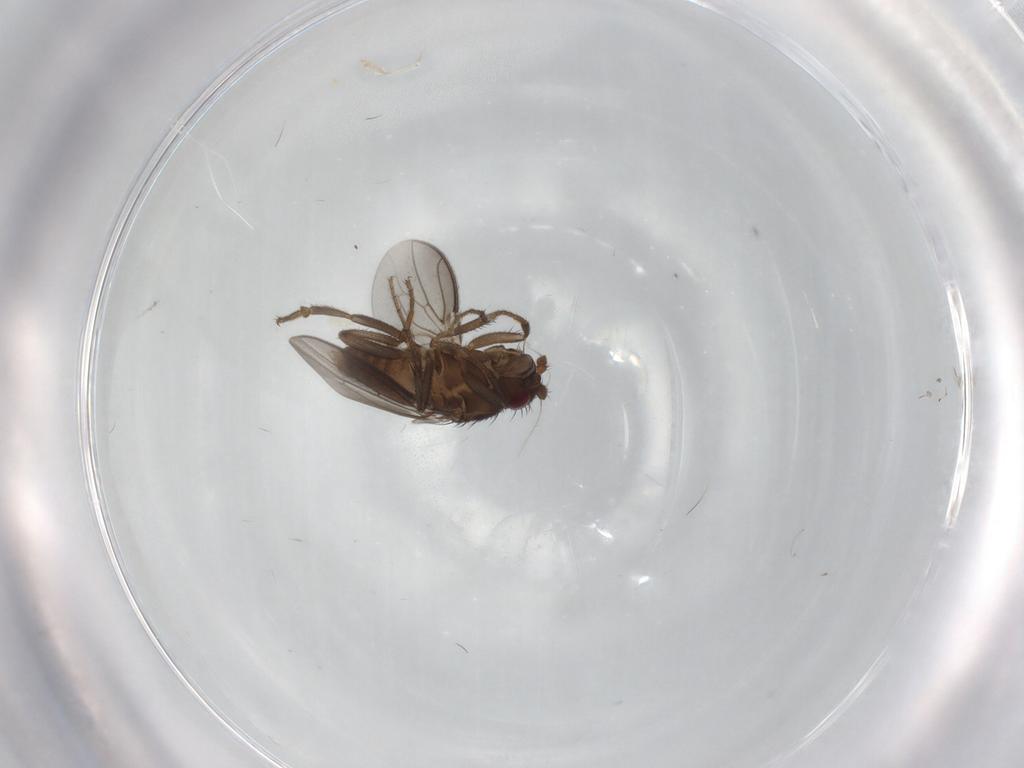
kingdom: Animalia
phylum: Arthropoda
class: Insecta
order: Diptera
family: Sphaeroceridae
